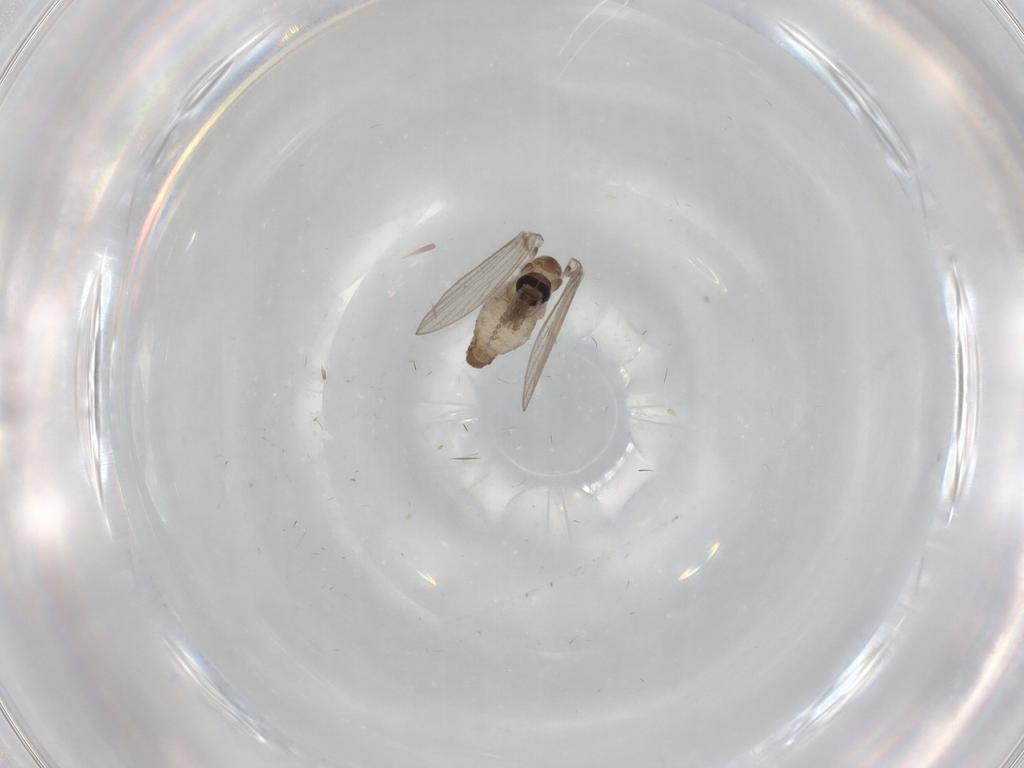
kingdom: Animalia
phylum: Arthropoda
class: Insecta
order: Diptera
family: Psychodidae
